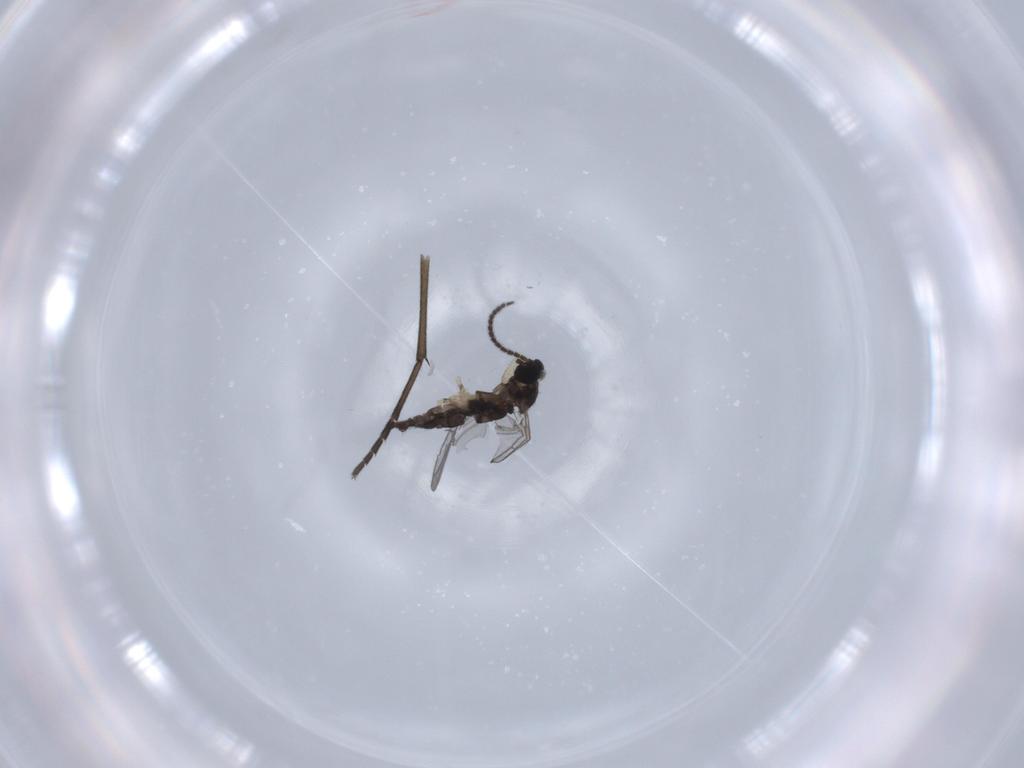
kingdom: Animalia
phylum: Arthropoda
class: Insecta
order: Diptera
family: Sciaridae
